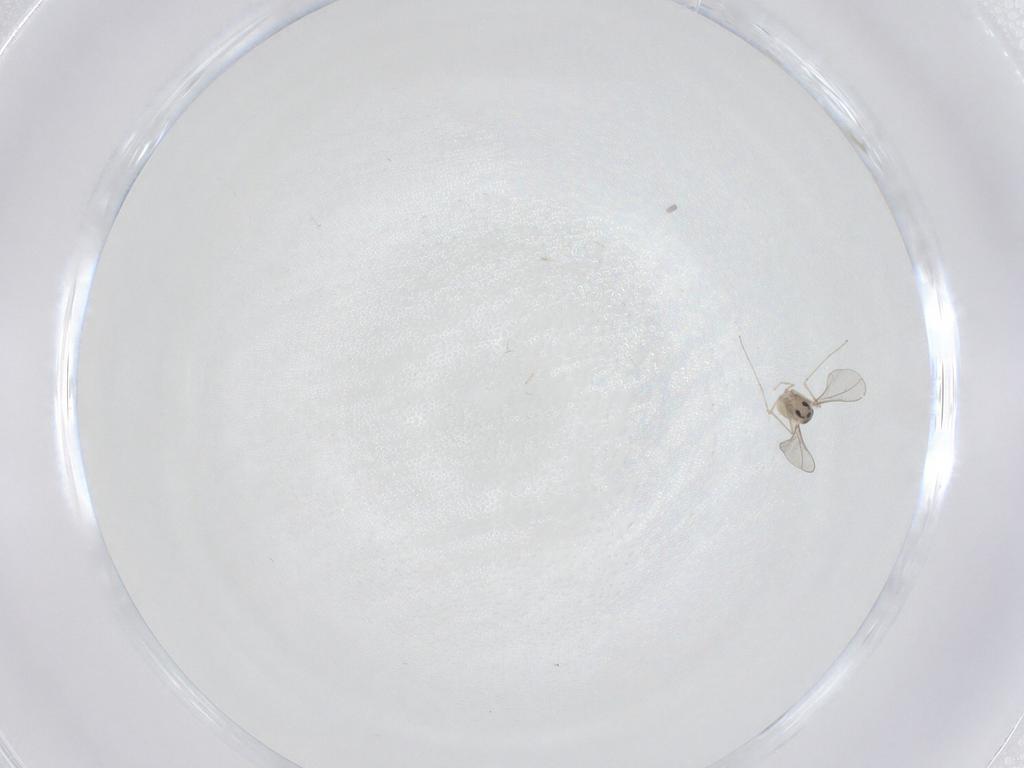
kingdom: Animalia
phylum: Arthropoda
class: Insecta
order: Diptera
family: Cecidomyiidae
